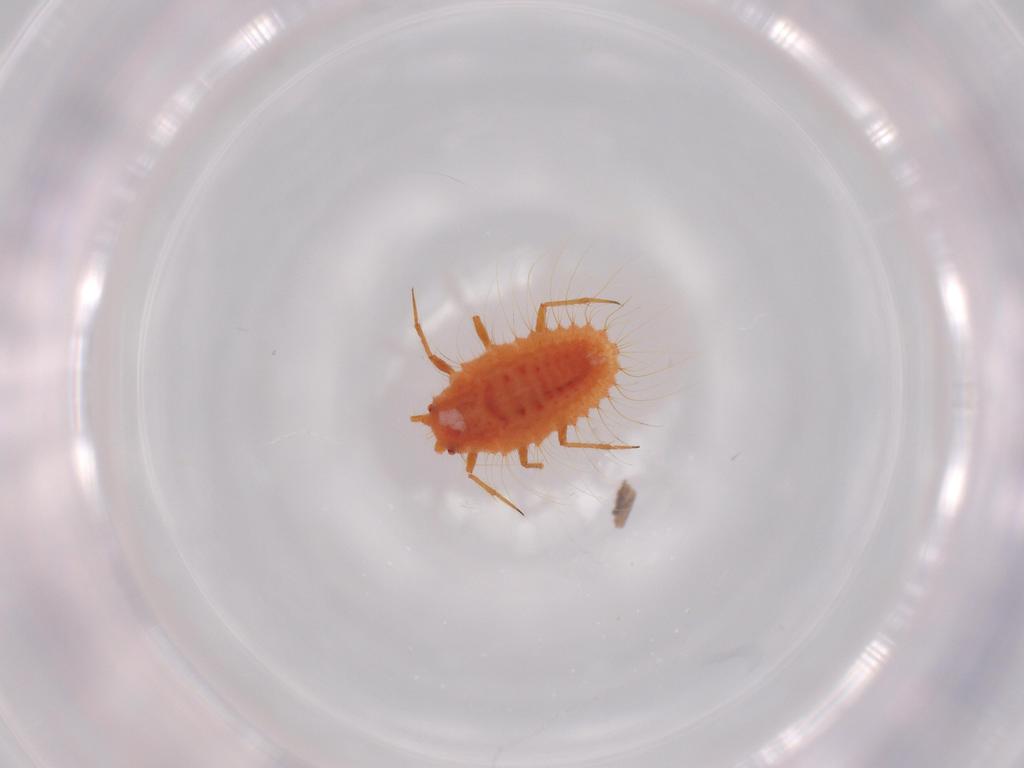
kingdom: Animalia
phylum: Arthropoda
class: Insecta
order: Hemiptera
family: Coccoidea_incertae_sedis
